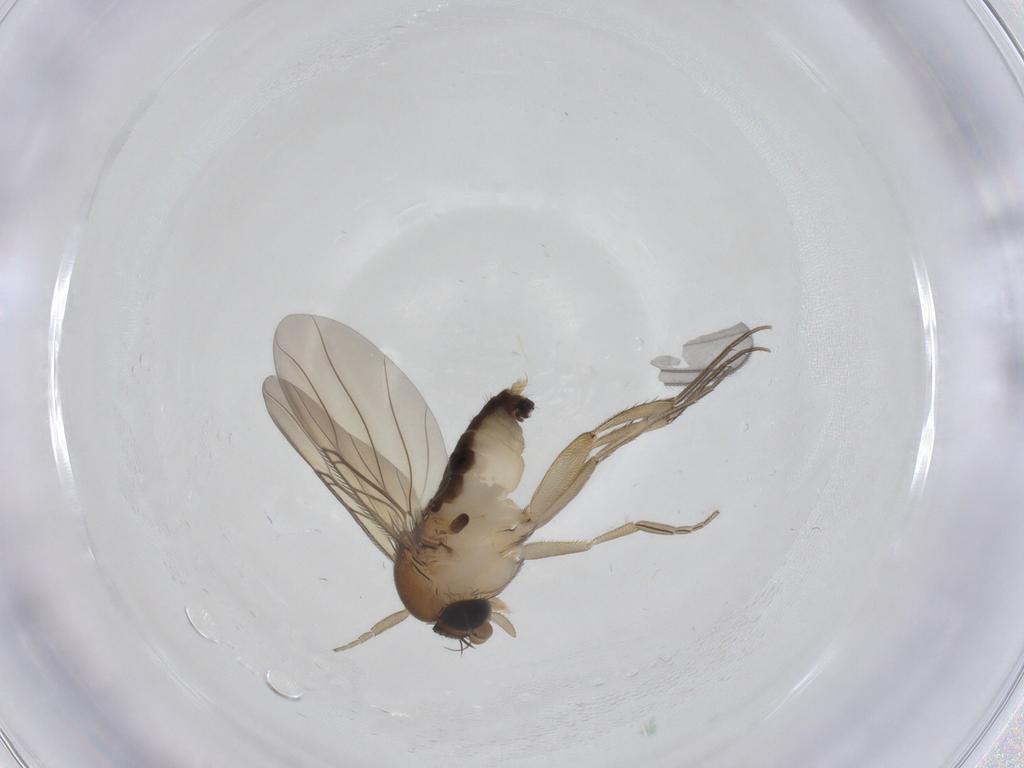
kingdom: Animalia
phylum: Arthropoda
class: Insecta
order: Diptera
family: Phoridae
